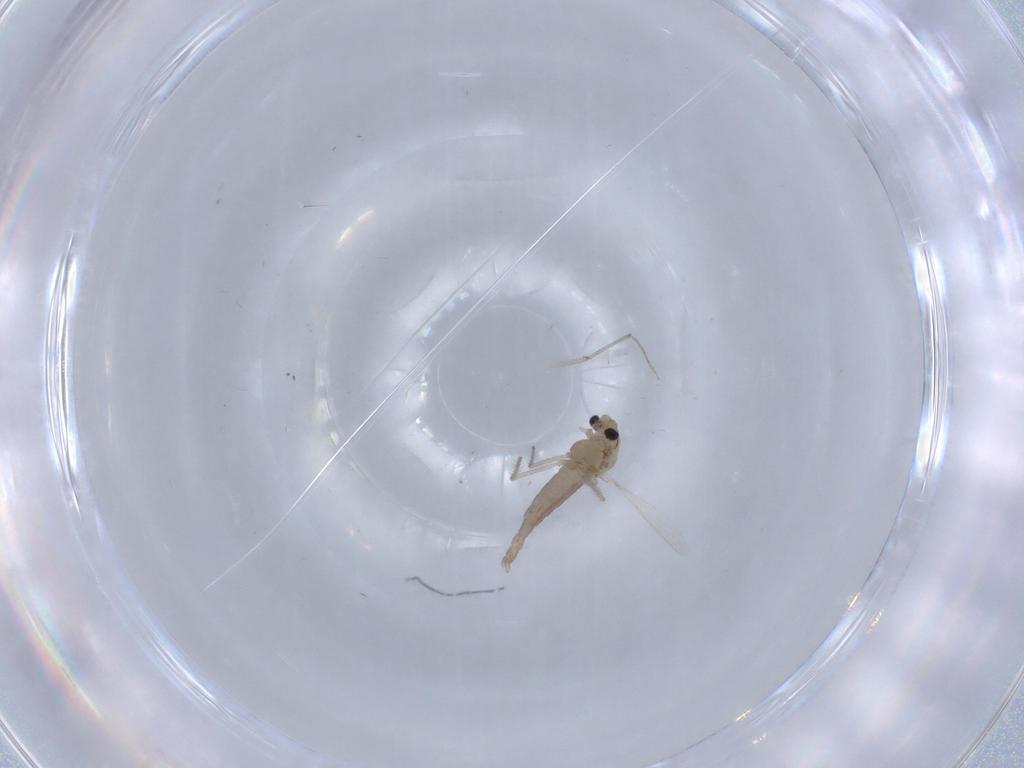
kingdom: Animalia
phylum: Arthropoda
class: Insecta
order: Diptera
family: Chironomidae
